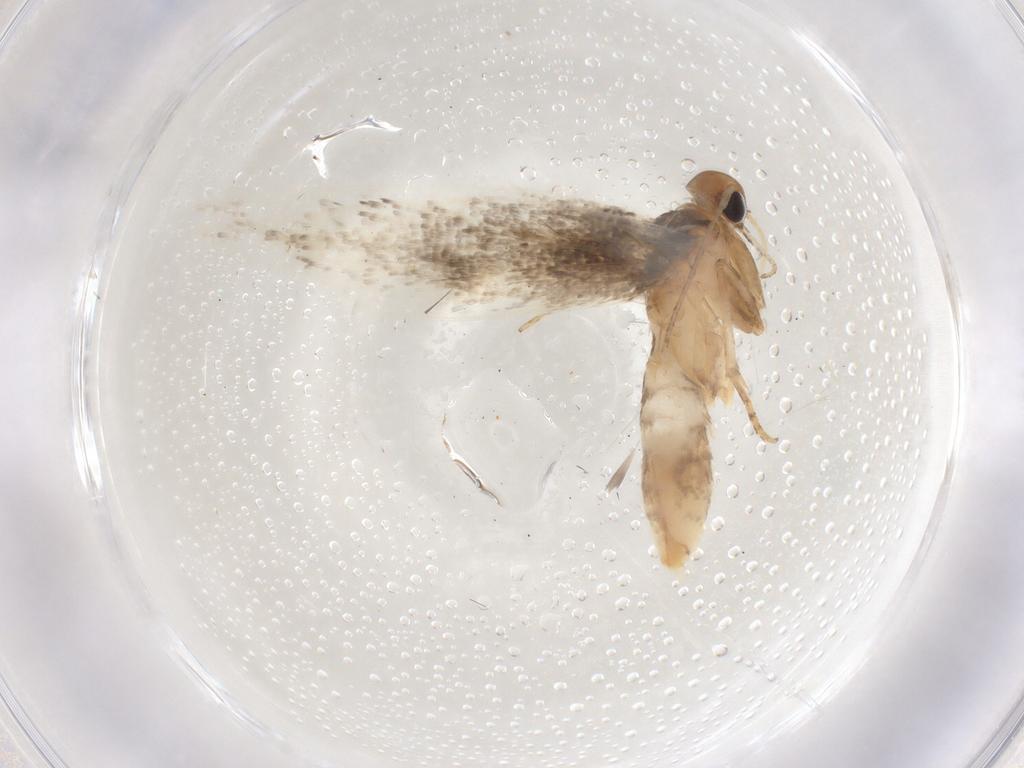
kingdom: Animalia
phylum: Arthropoda
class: Insecta
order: Lepidoptera
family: Gelechiidae
